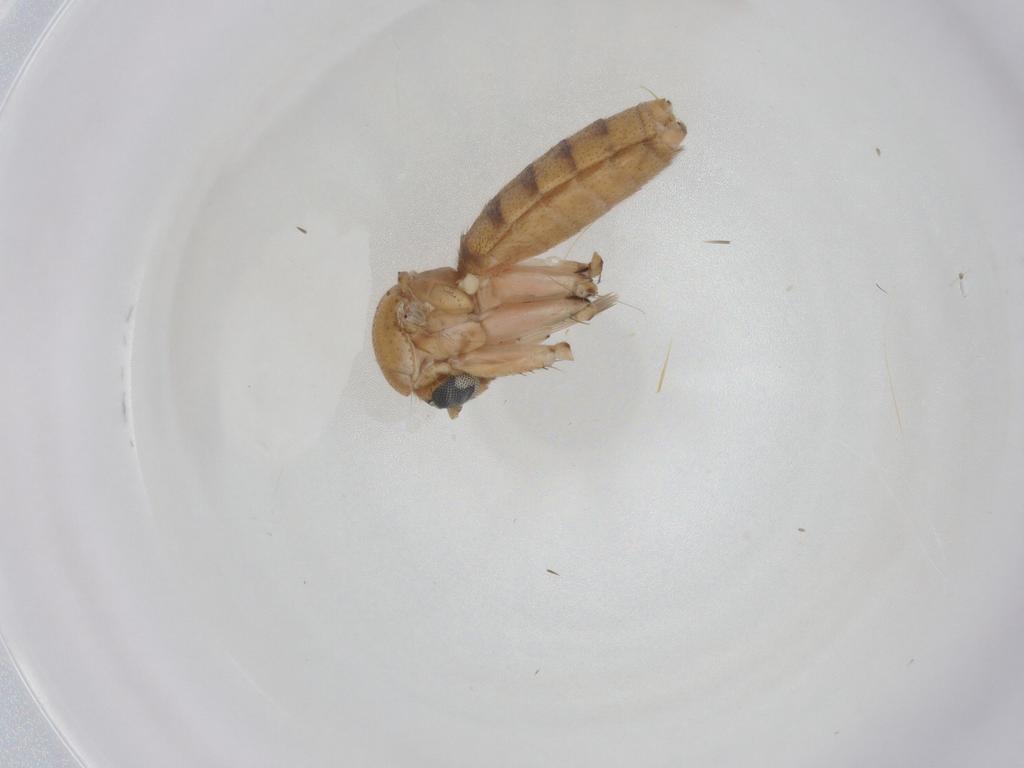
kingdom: Animalia
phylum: Arthropoda
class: Insecta
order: Diptera
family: Mycetophilidae
